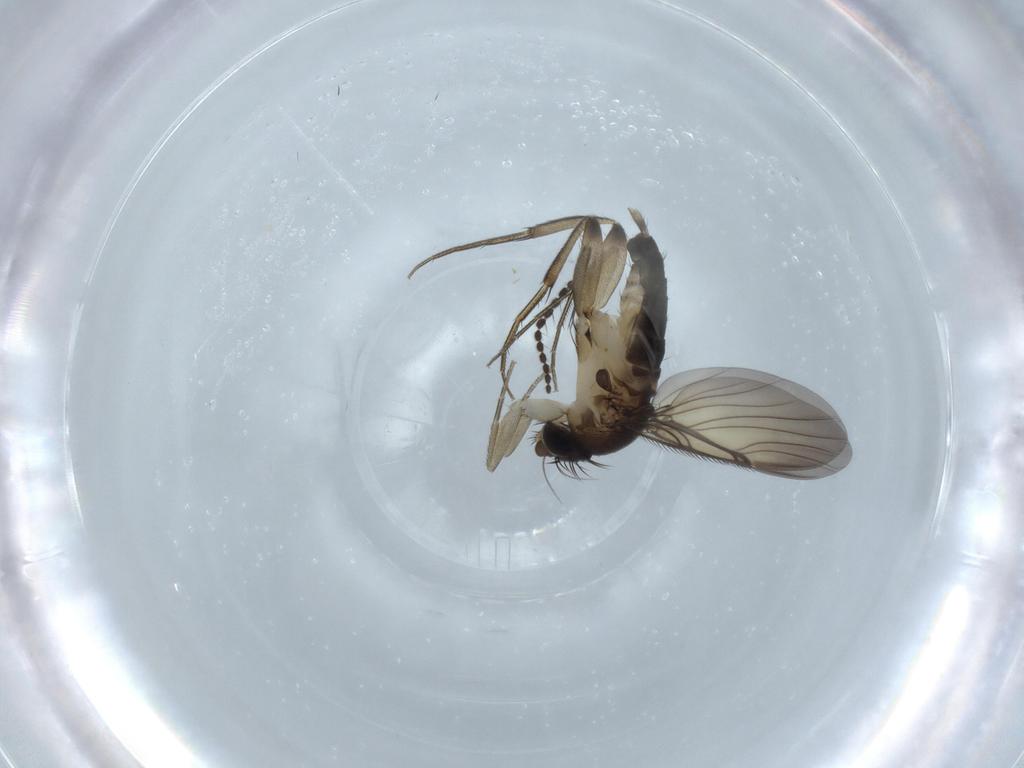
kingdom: Animalia
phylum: Arthropoda
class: Insecta
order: Diptera
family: Limoniidae
